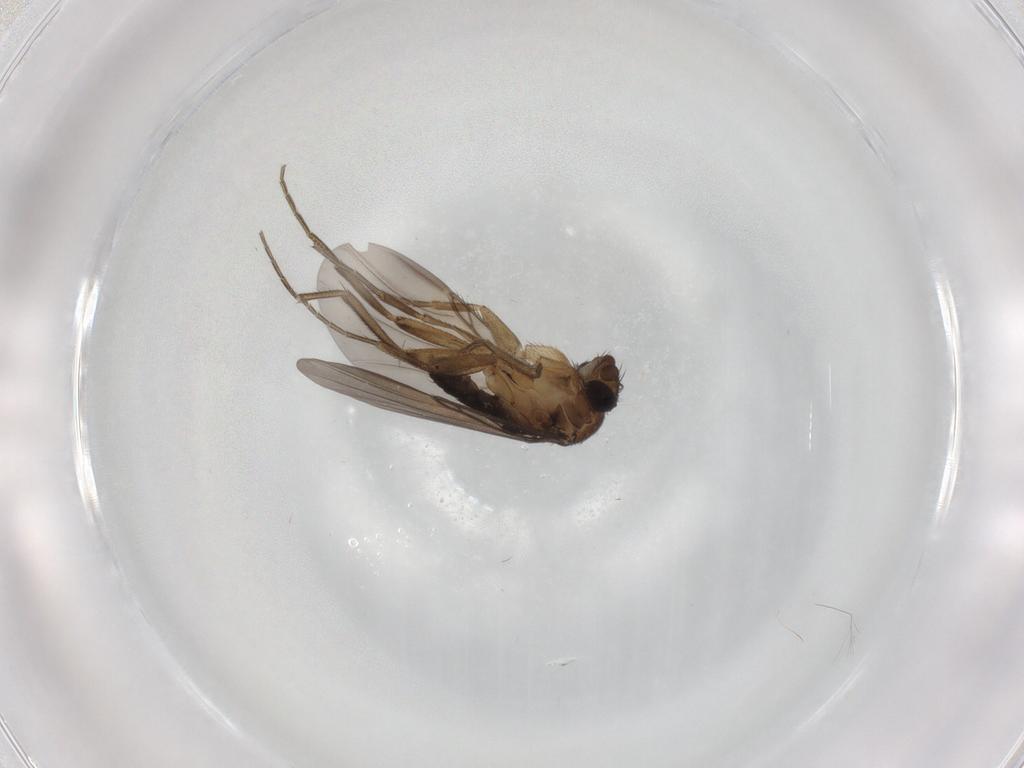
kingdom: Animalia
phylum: Arthropoda
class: Insecta
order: Diptera
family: Phoridae
